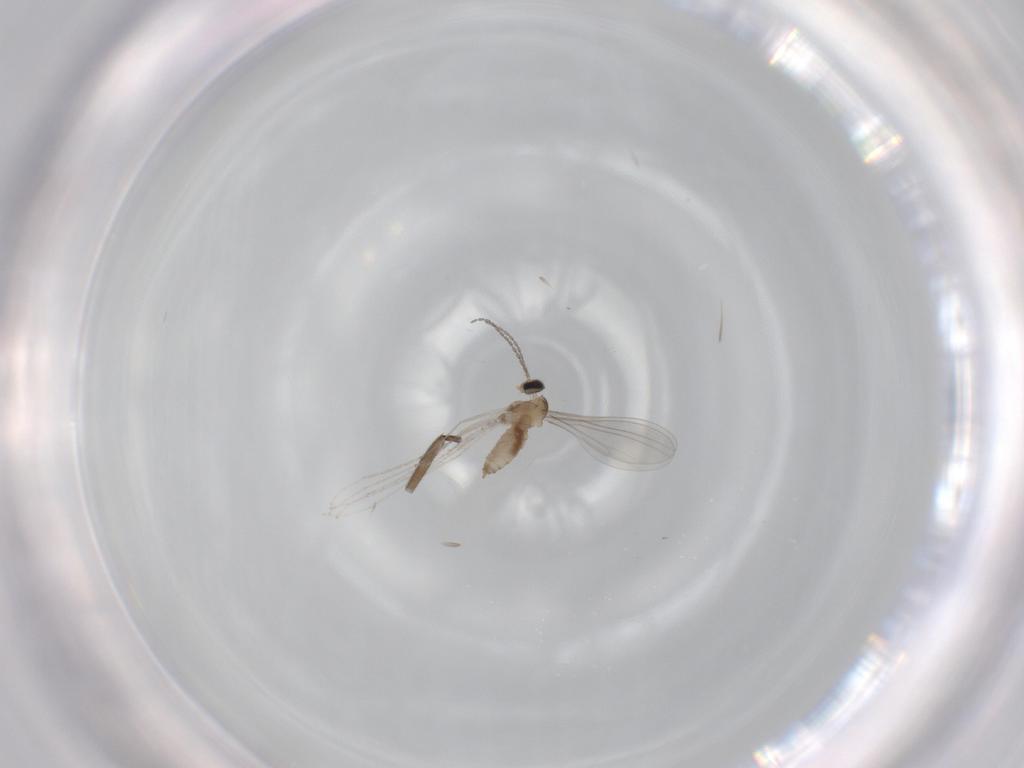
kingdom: Animalia
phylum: Arthropoda
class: Insecta
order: Diptera
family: Cecidomyiidae
